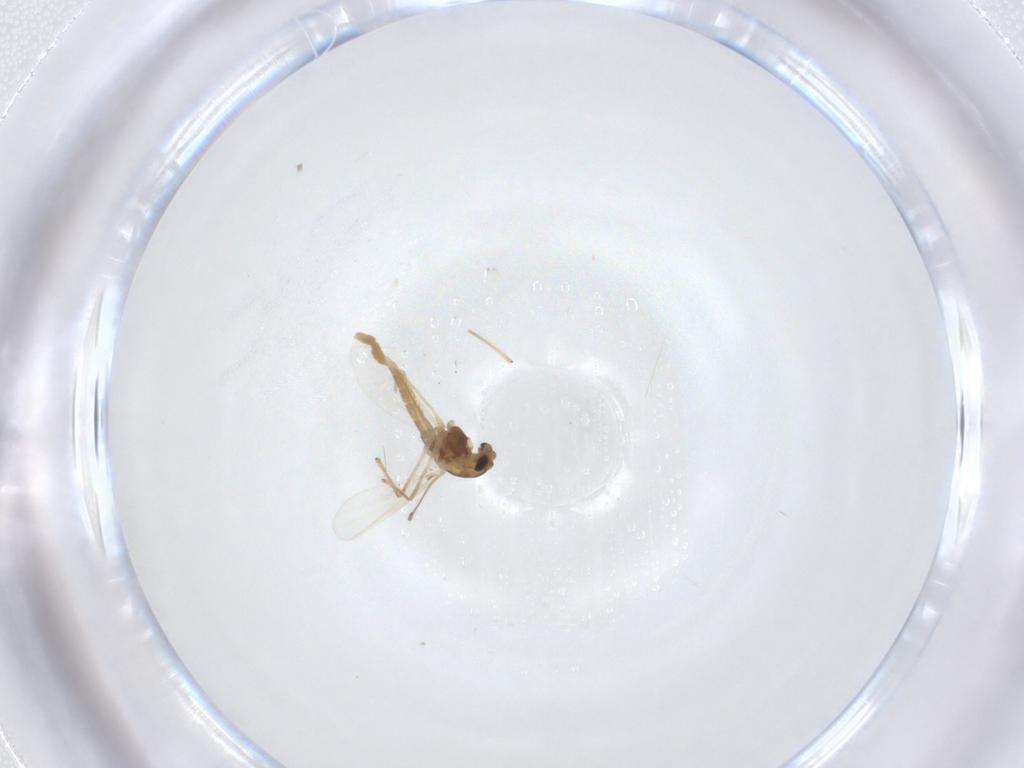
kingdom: Animalia
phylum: Arthropoda
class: Insecta
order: Diptera
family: Chironomidae
